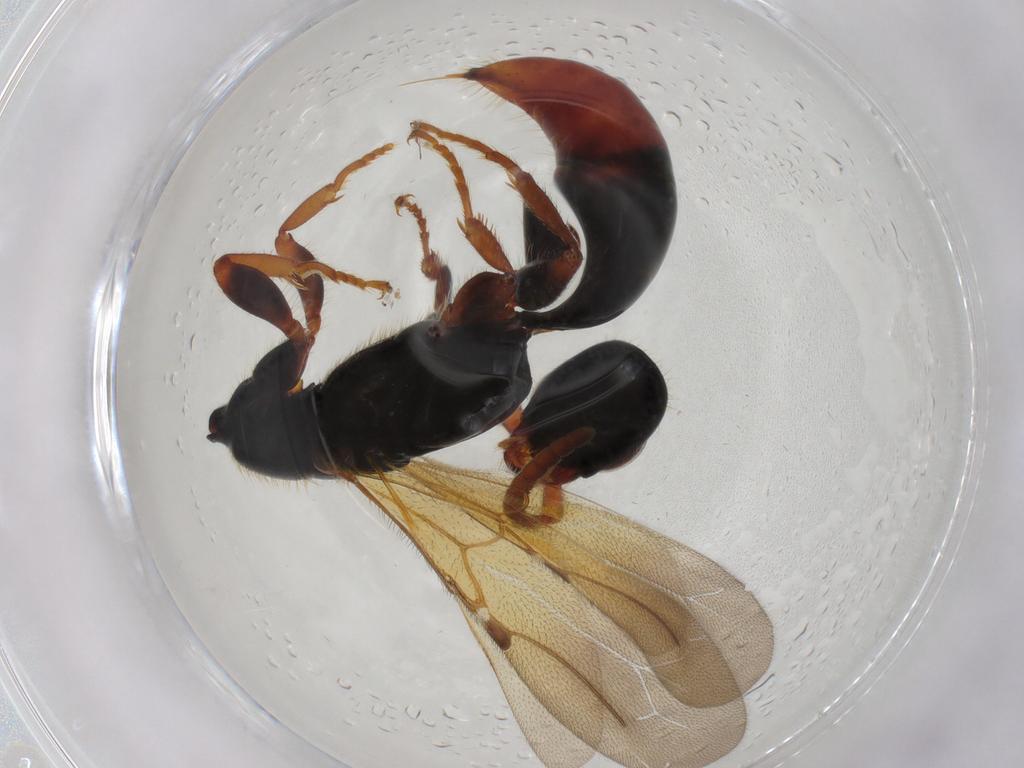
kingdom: Animalia
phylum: Arthropoda
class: Insecta
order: Hymenoptera
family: Bethylidae
